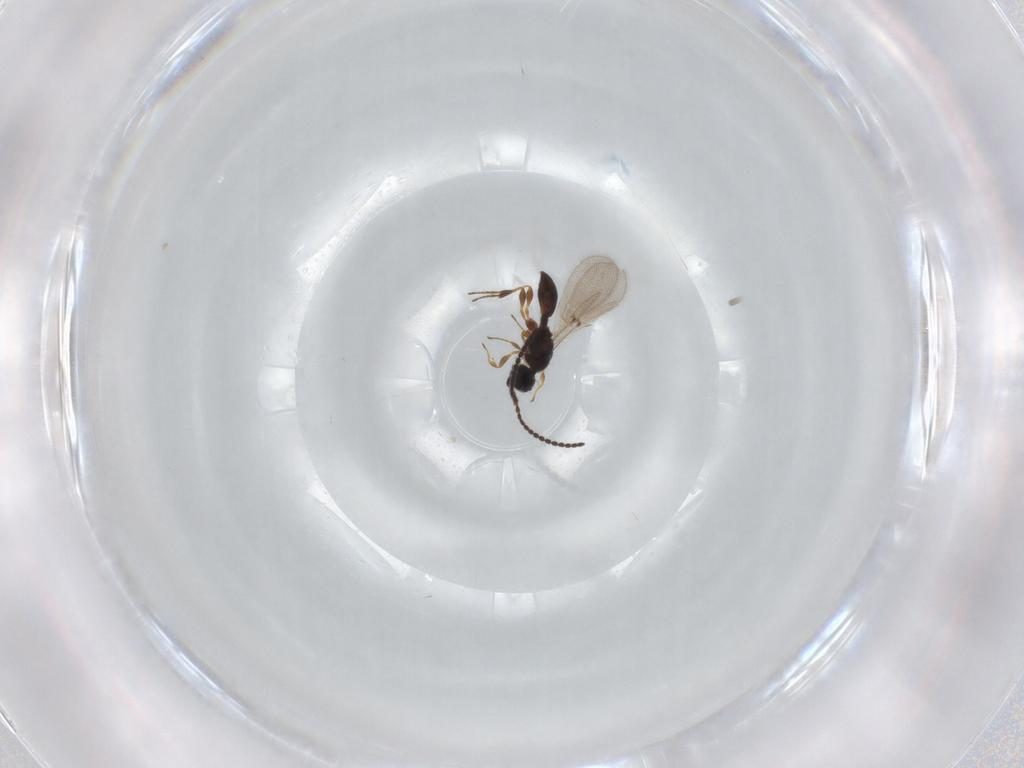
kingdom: Animalia
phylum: Arthropoda
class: Insecta
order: Hymenoptera
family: Diapriidae
